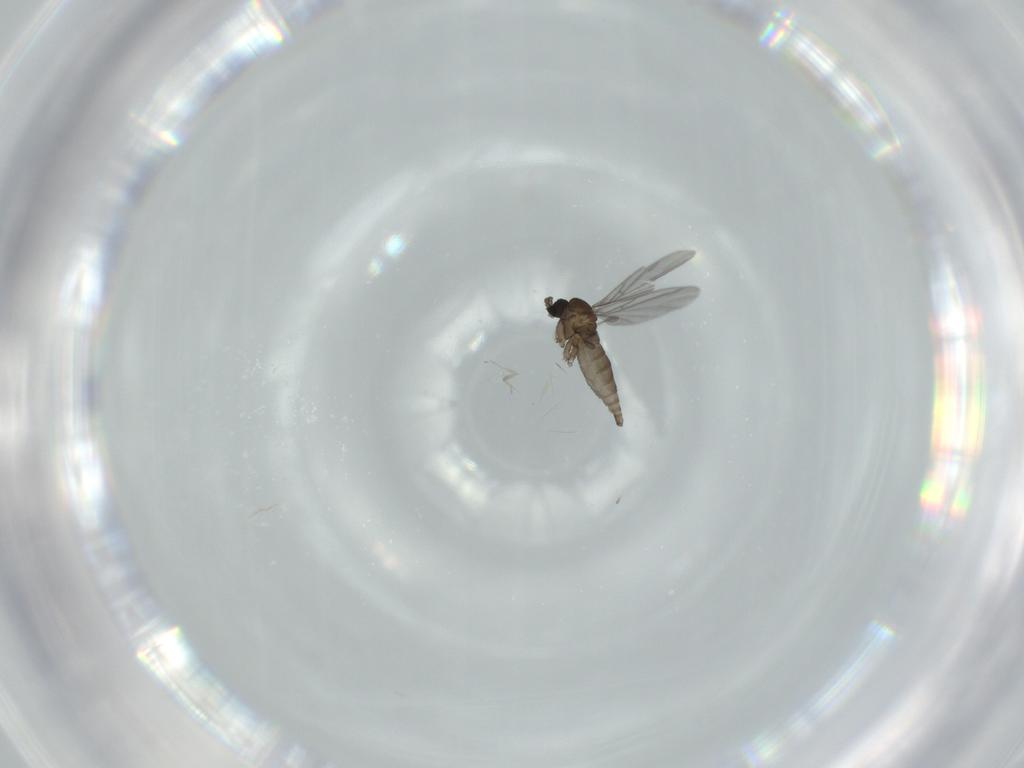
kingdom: Animalia
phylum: Arthropoda
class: Insecta
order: Diptera
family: Sciaridae
